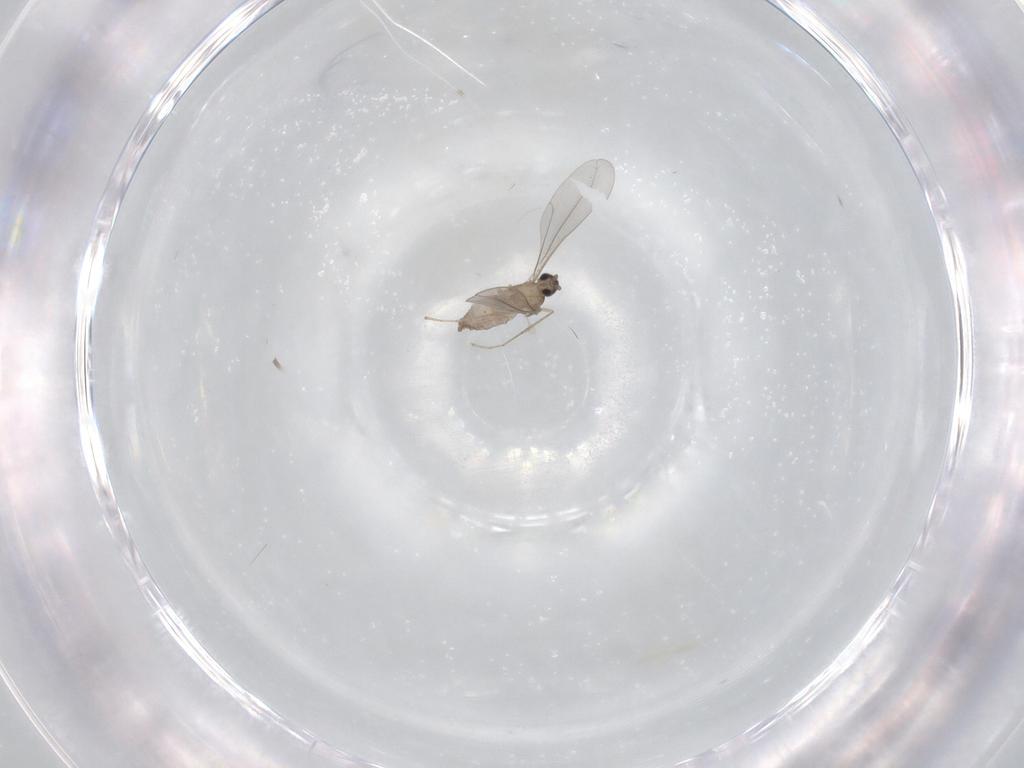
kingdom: Animalia
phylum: Arthropoda
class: Insecta
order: Diptera
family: Cecidomyiidae
